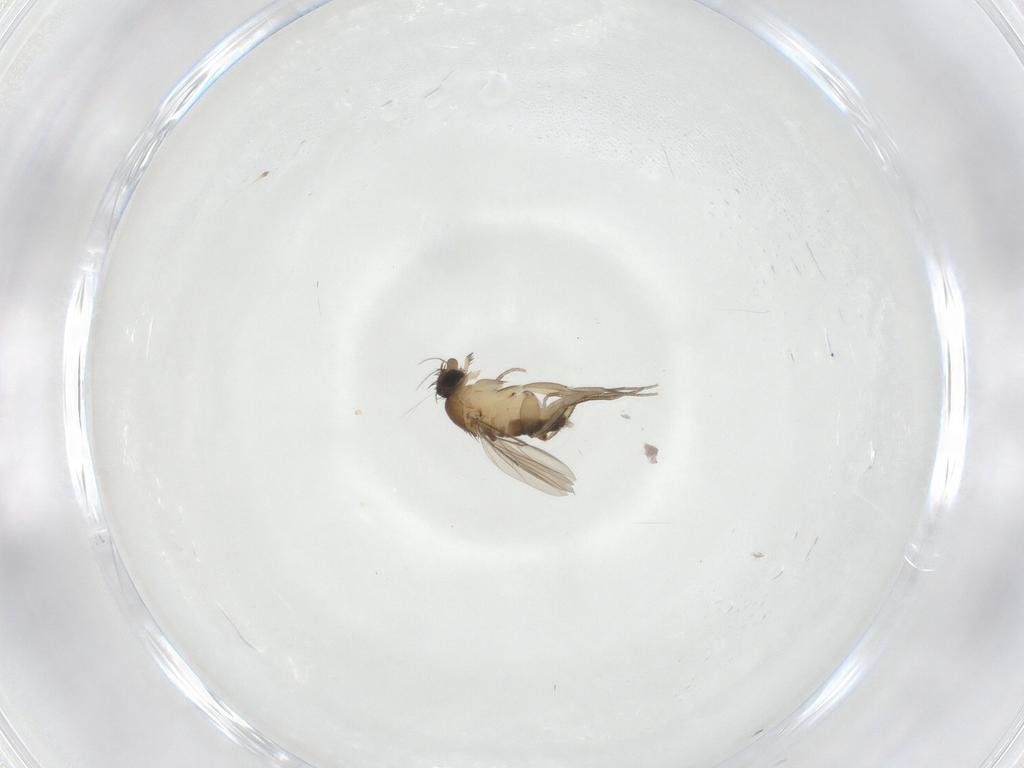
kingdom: Animalia
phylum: Arthropoda
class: Insecta
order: Diptera
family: Phoridae
